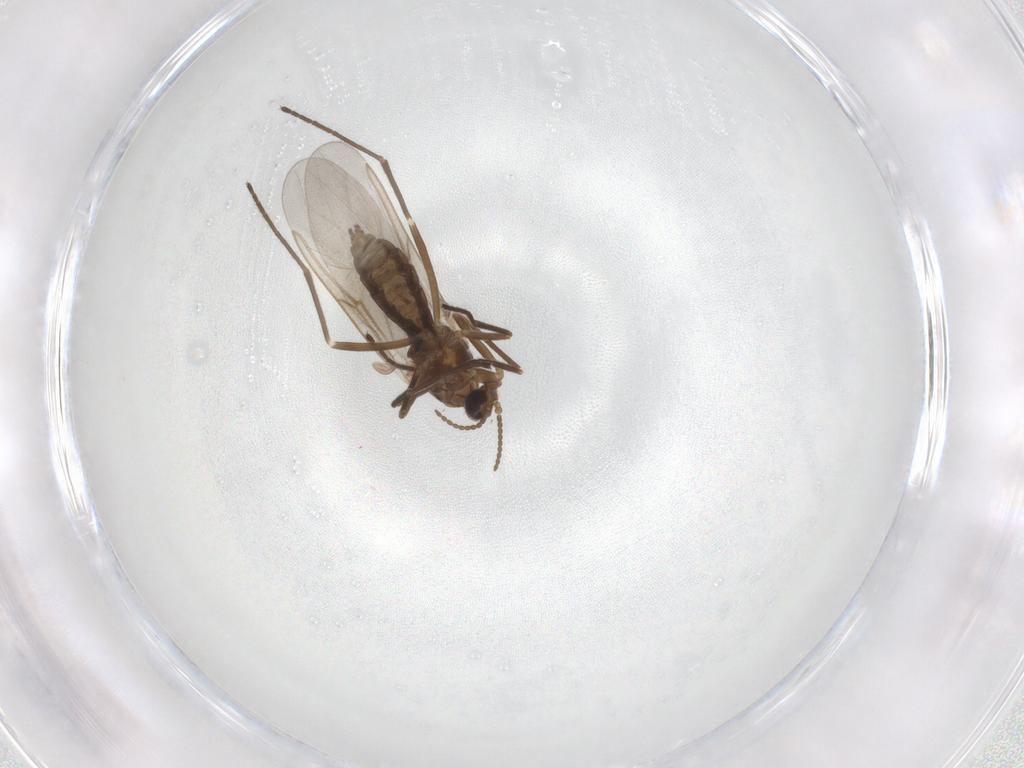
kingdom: Animalia
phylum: Arthropoda
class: Insecta
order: Diptera
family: Cecidomyiidae
